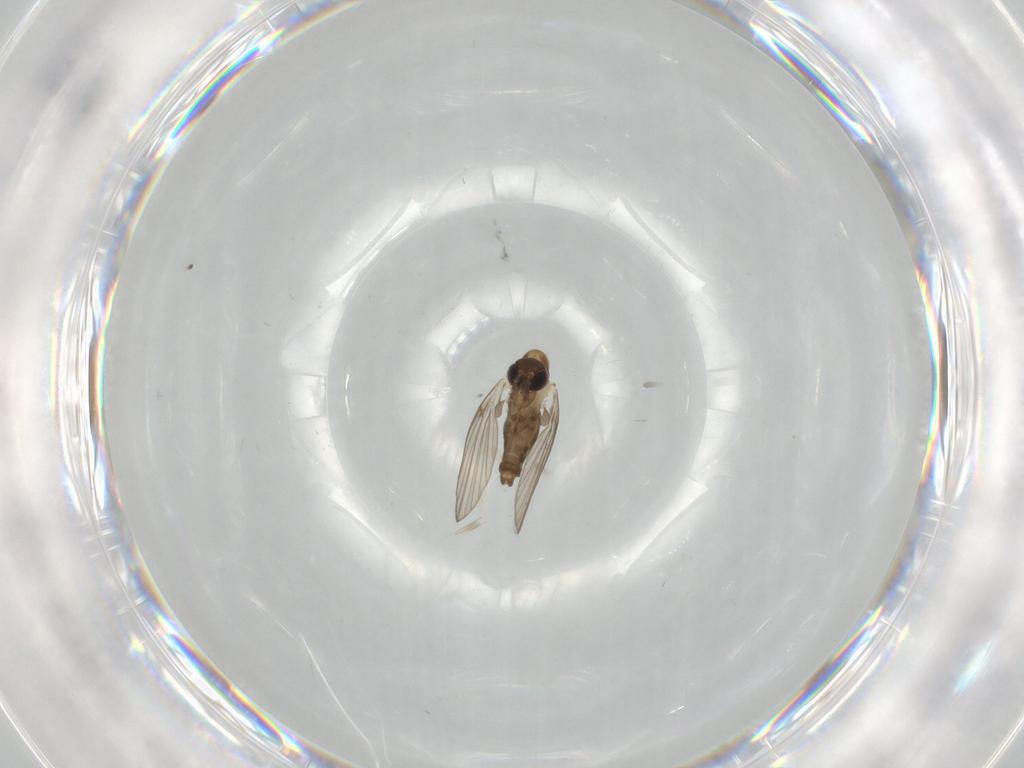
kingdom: Animalia
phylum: Arthropoda
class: Insecta
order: Diptera
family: Psychodidae
